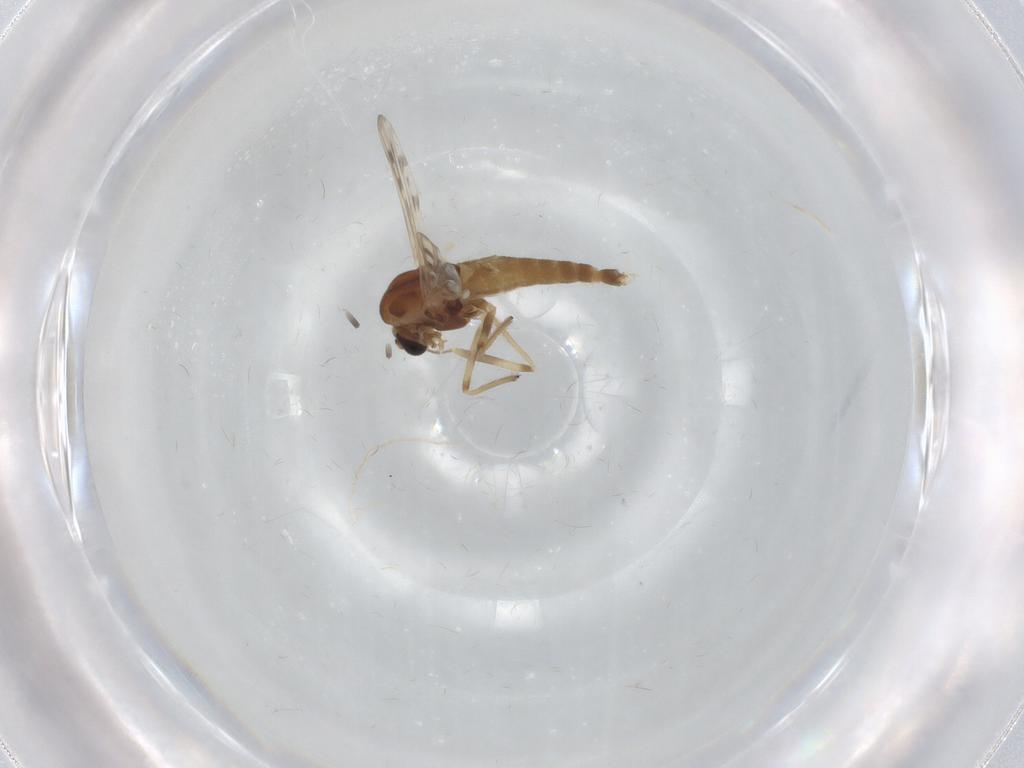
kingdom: Animalia
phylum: Arthropoda
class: Insecta
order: Diptera
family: Chironomidae
